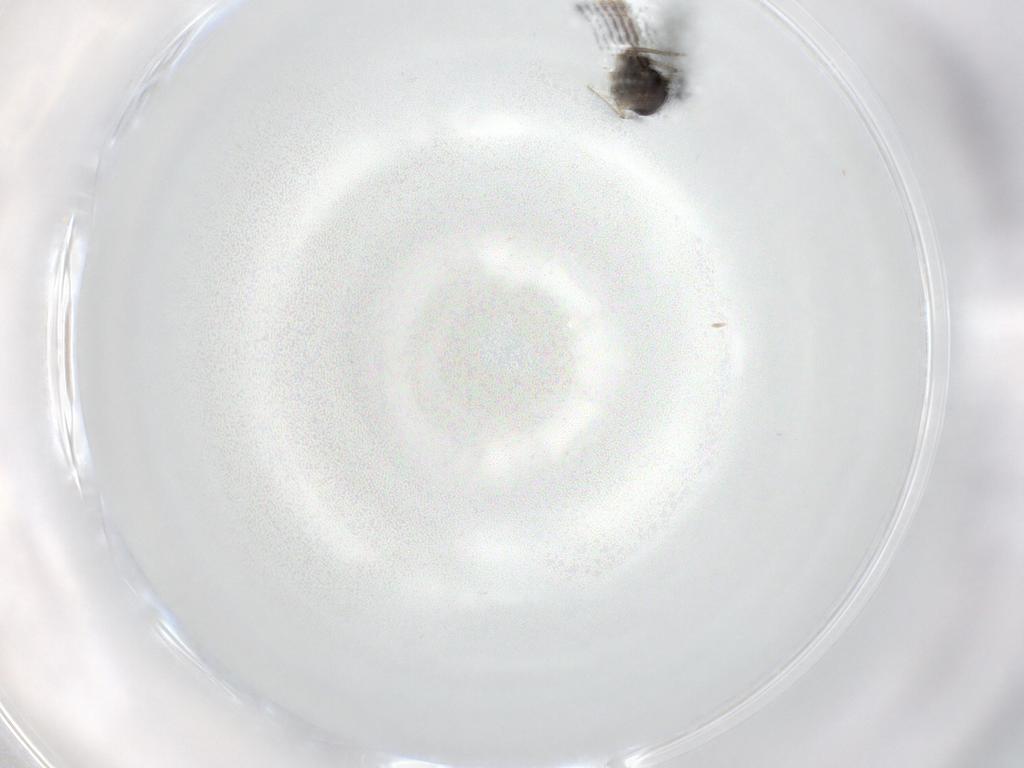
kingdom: Animalia
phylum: Arthropoda
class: Insecta
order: Diptera
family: Chironomidae
